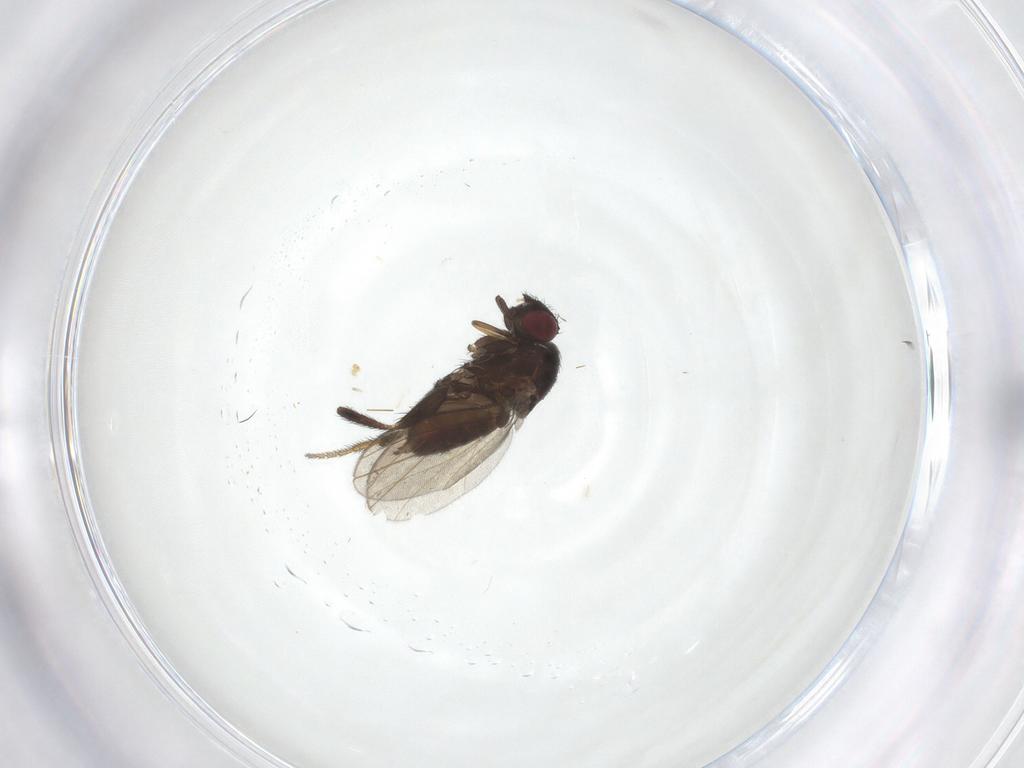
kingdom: Animalia
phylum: Arthropoda
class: Insecta
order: Diptera
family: Milichiidae
